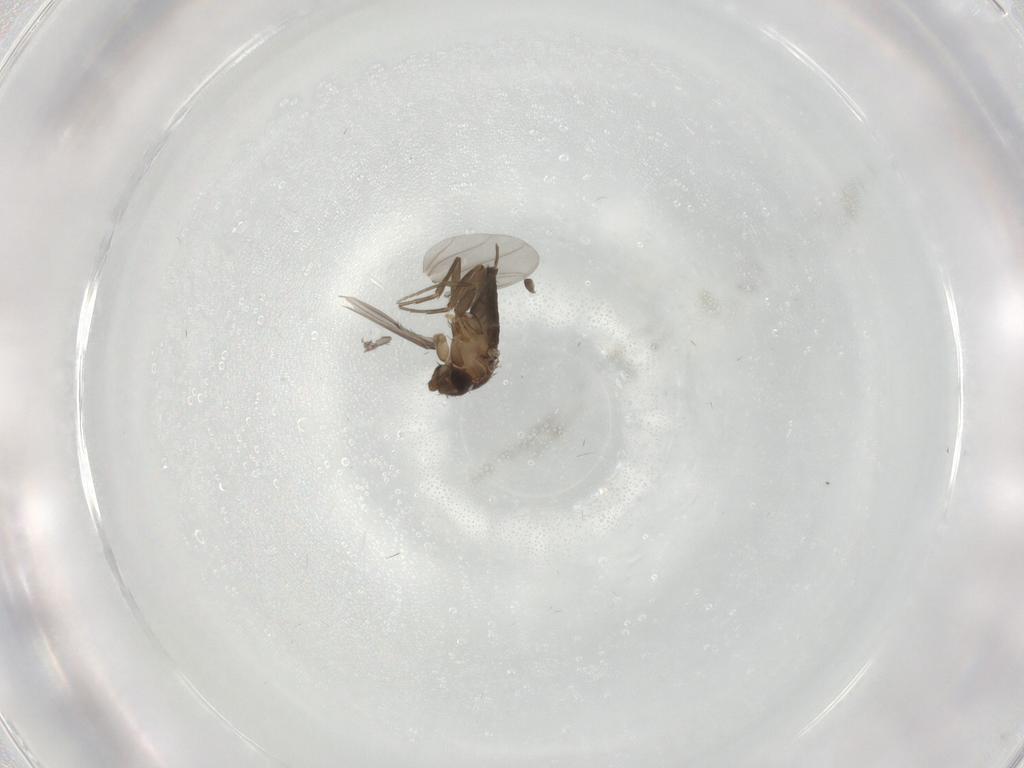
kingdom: Animalia
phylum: Arthropoda
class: Insecta
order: Diptera
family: Phoridae
